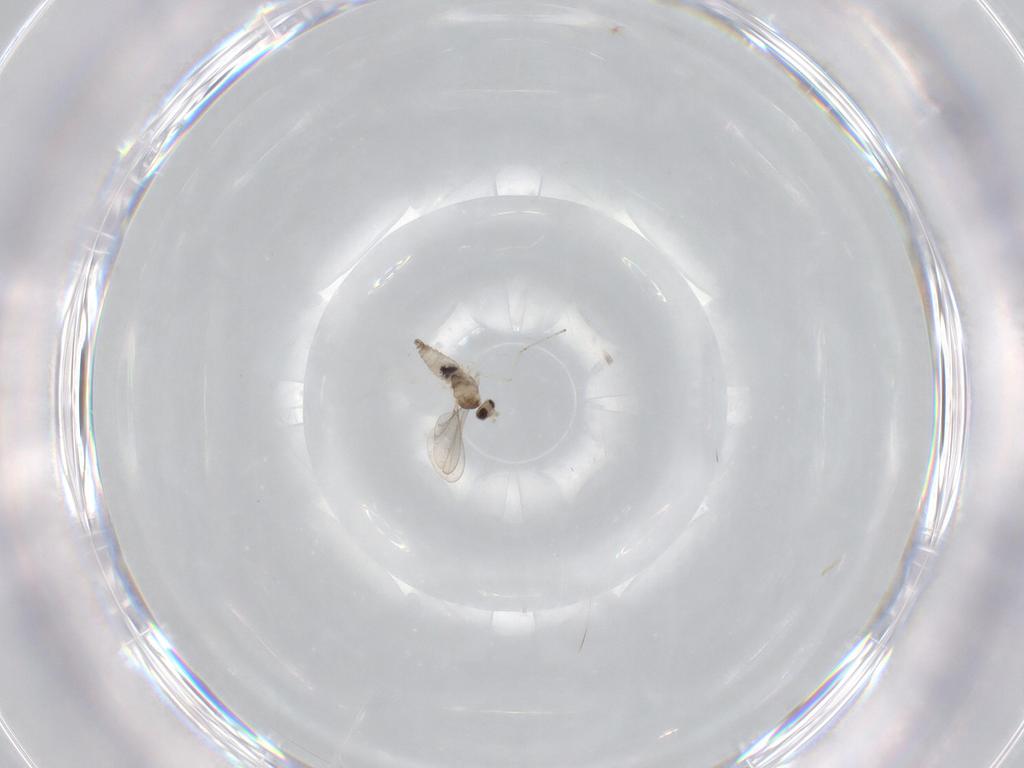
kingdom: Animalia
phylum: Arthropoda
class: Insecta
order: Diptera
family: Cecidomyiidae
